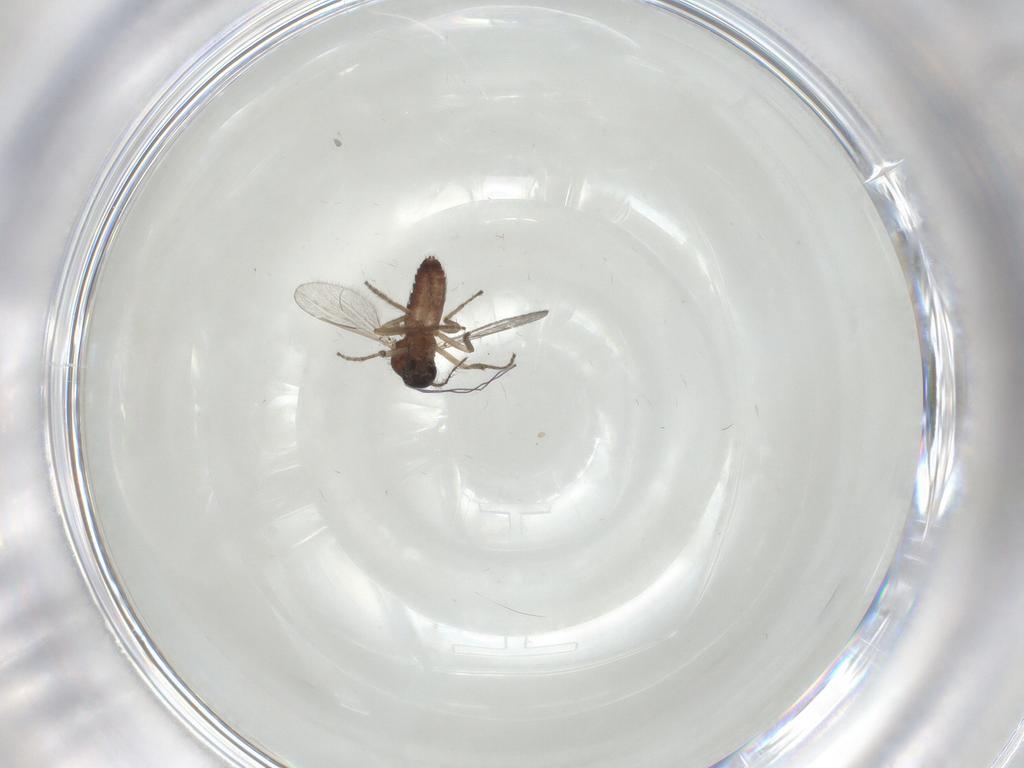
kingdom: Animalia
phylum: Arthropoda
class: Insecta
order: Diptera
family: Ceratopogonidae
